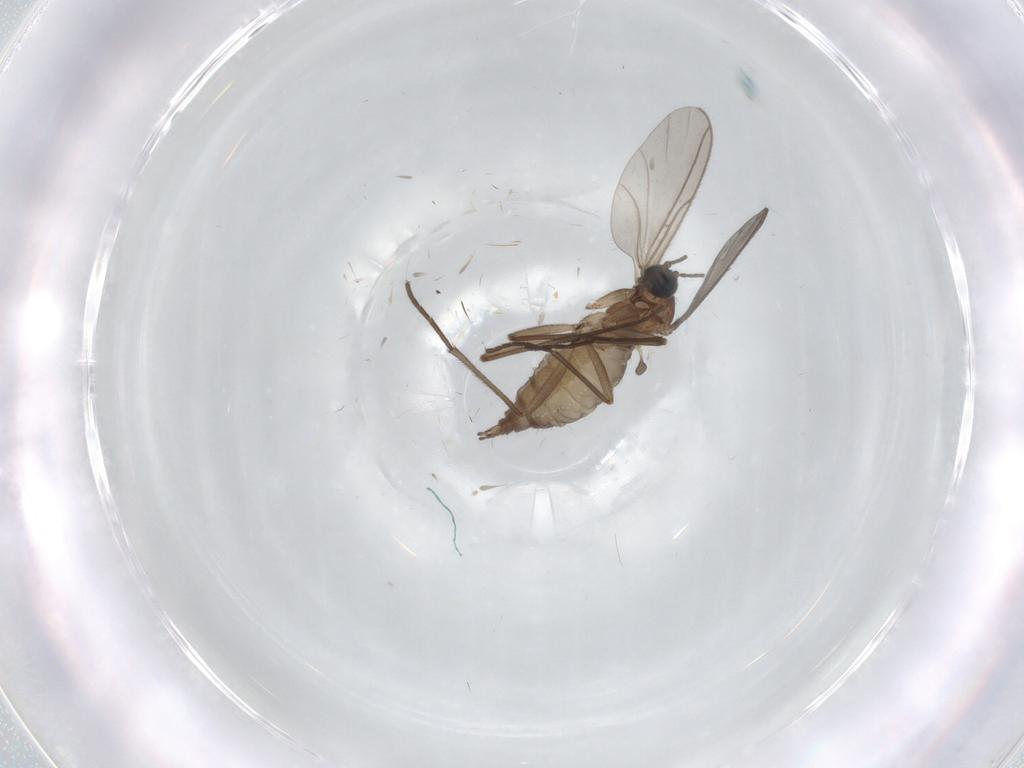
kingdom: Animalia
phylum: Arthropoda
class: Insecta
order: Diptera
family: Sciaridae
